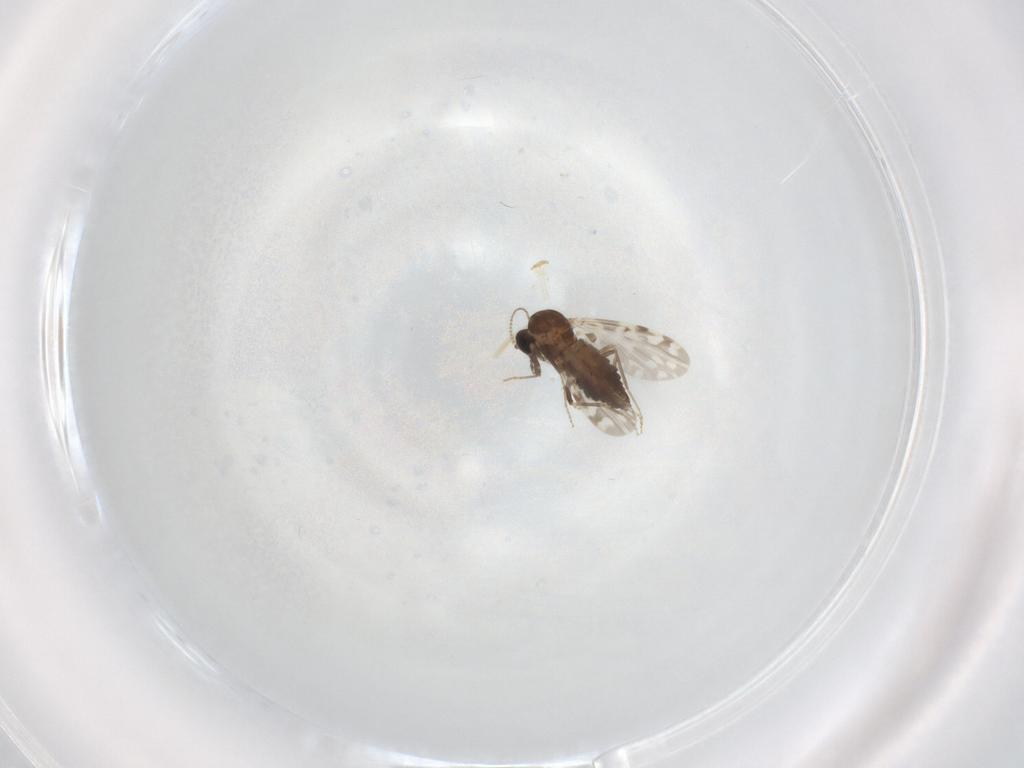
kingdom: Animalia
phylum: Arthropoda
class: Insecta
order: Diptera
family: Ceratopogonidae
